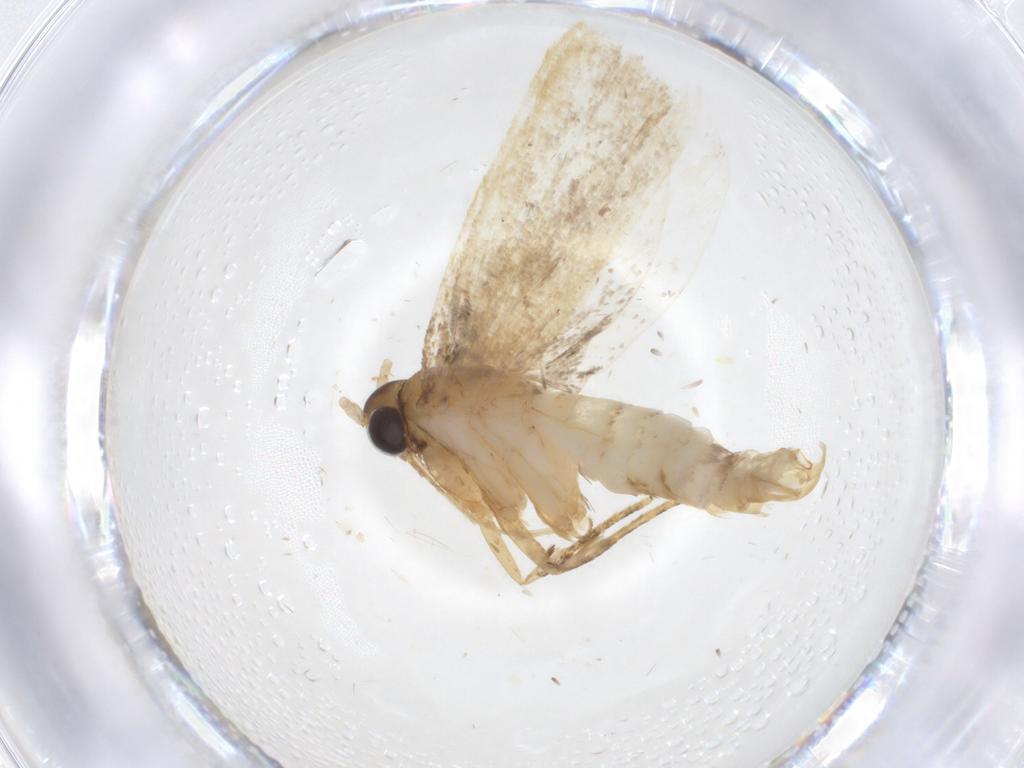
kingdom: Animalia
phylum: Arthropoda
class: Insecta
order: Lepidoptera
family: Lecithoceridae
